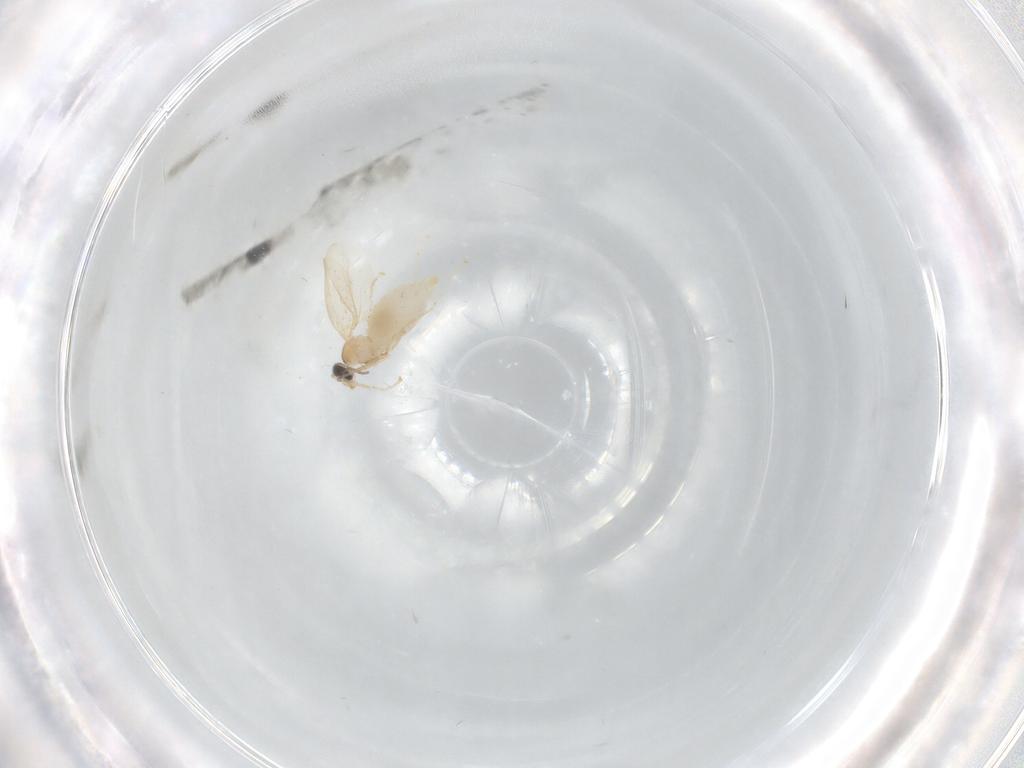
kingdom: Animalia
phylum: Arthropoda
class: Insecta
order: Diptera
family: Cecidomyiidae
